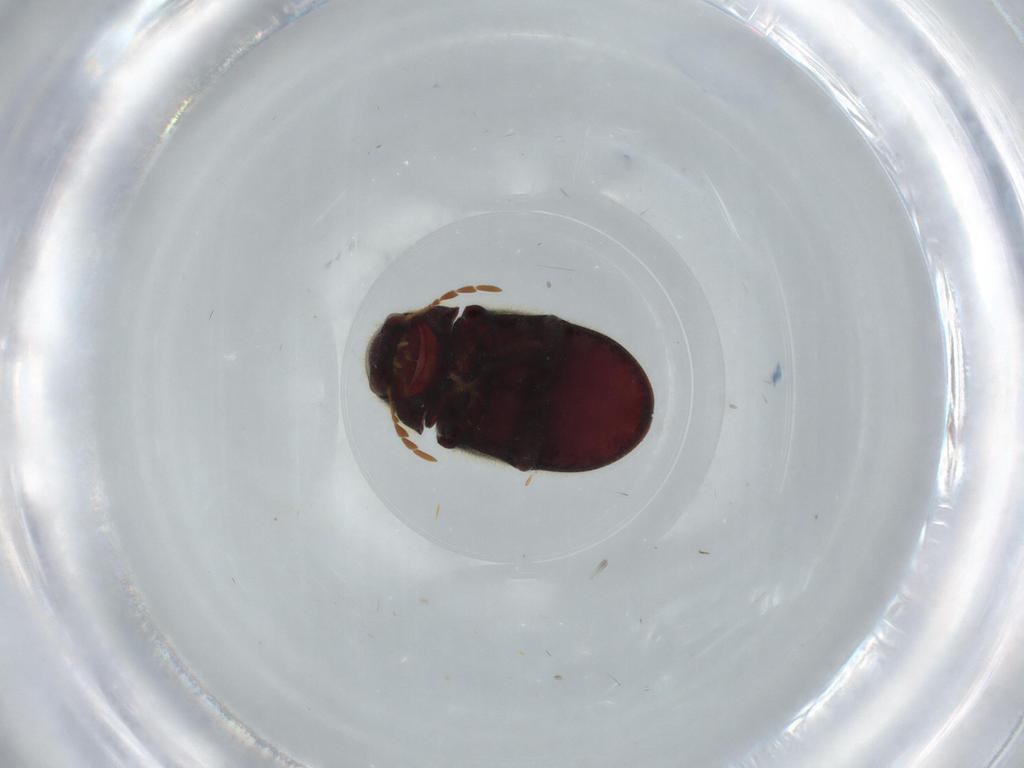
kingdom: Animalia
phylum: Arthropoda
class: Insecta
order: Coleoptera
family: Ptinidae
